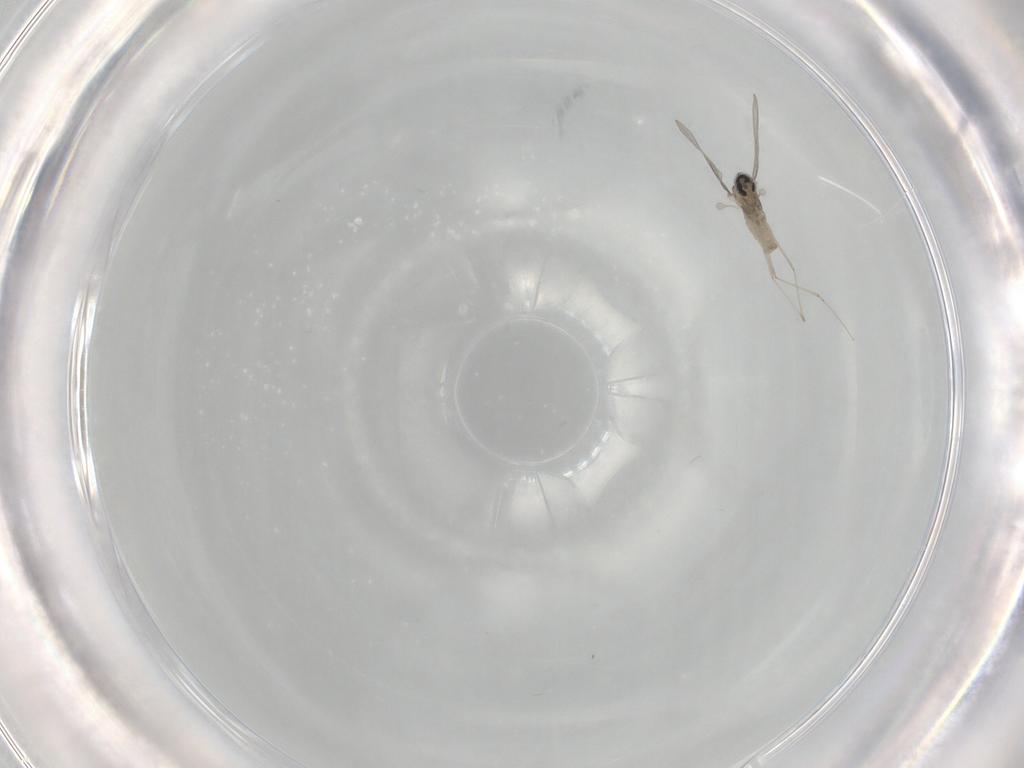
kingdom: Animalia
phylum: Arthropoda
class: Insecta
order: Diptera
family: Cecidomyiidae
